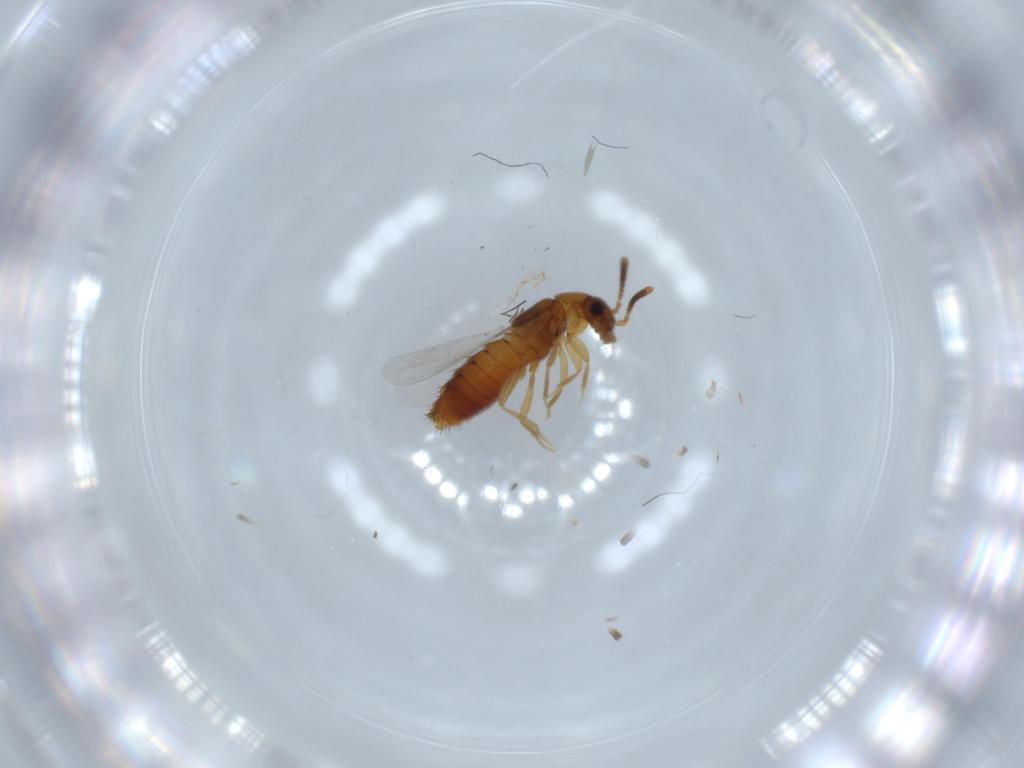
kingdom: Animalia
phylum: Arthropoda
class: Insecta
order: Coleoptera
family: Staphylinidae
